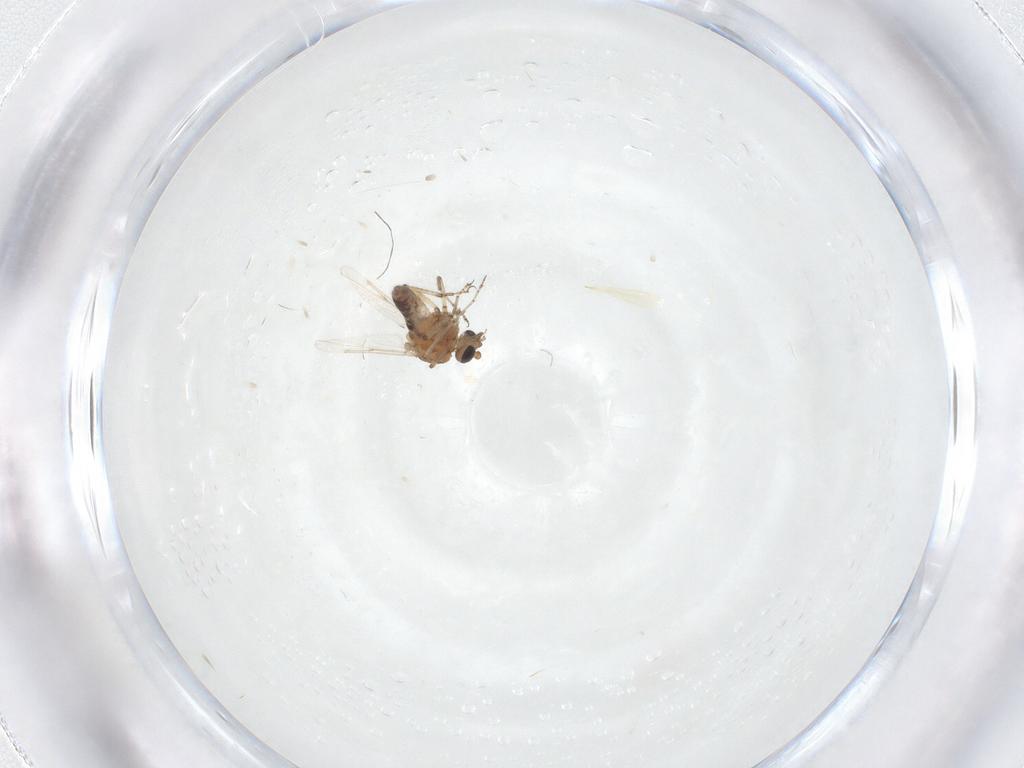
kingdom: Animalia
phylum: Arthropoda
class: Insecta
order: Diptera
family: Ceratopogonidae
